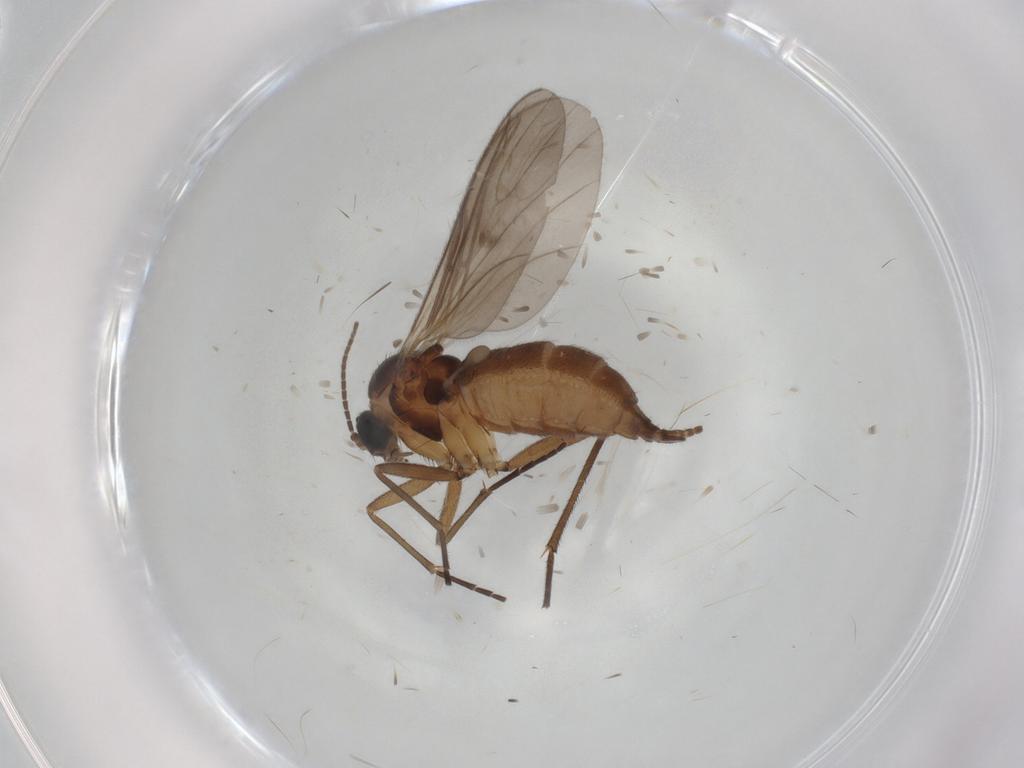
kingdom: Animalia
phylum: Arthropoda
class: Insecta
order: Diptera
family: Sciaridae
